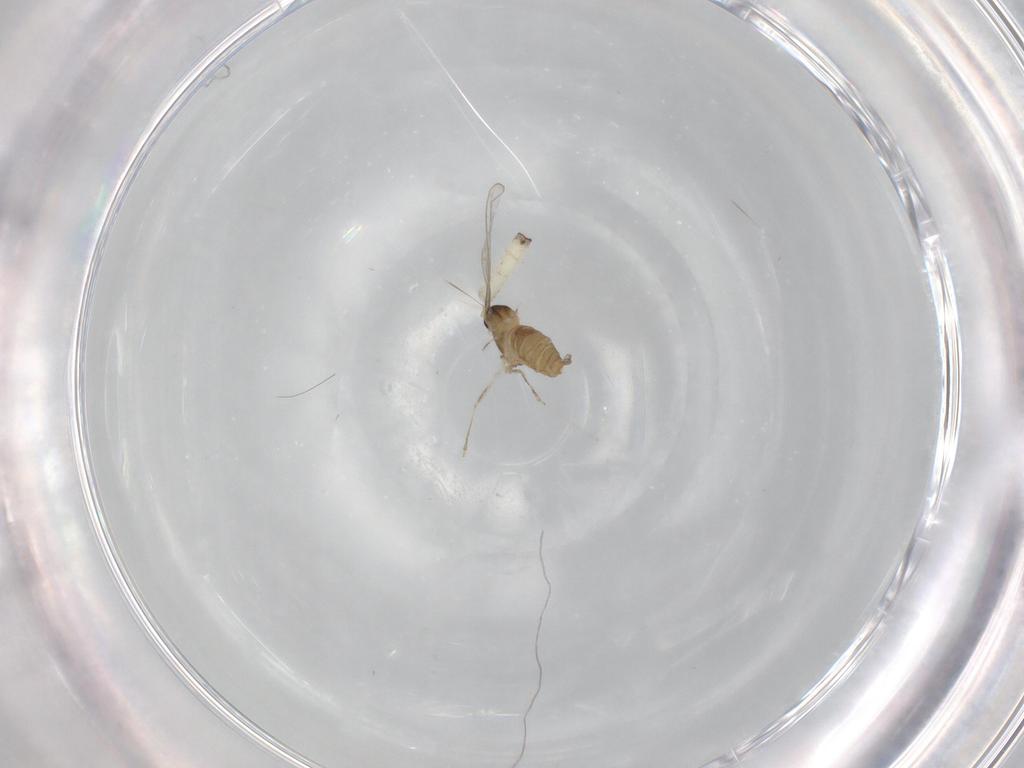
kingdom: Animalia
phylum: Arthropoda
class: Insecta
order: Diptera
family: Cecidomyiidae
